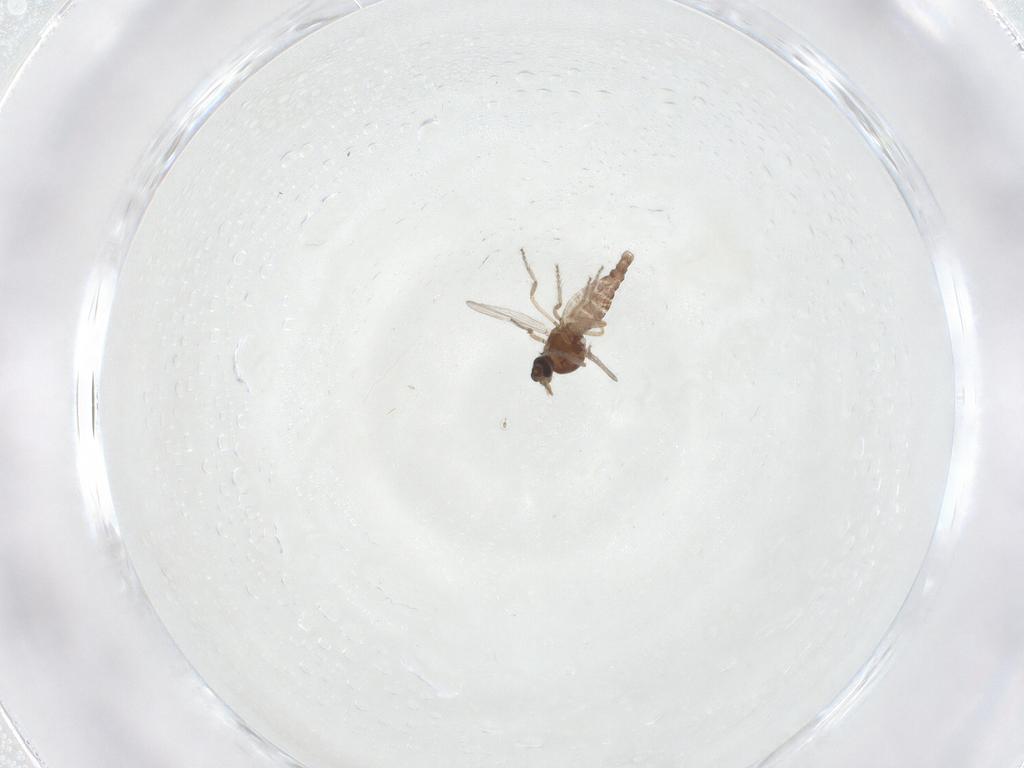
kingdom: Animalia
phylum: Arthropoda
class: Insecta
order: Diptera
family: Ceratopogonidae
